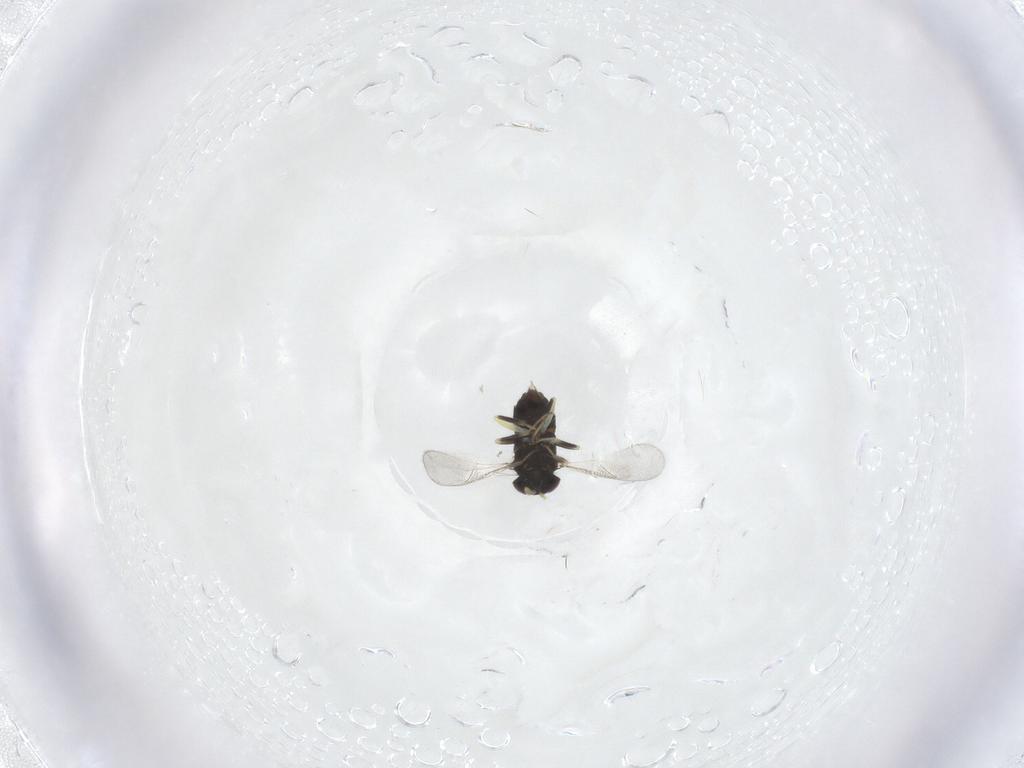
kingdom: Animalia
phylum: Arthropoda
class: Insecta
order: Hymenoptera
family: Aphelinidae
